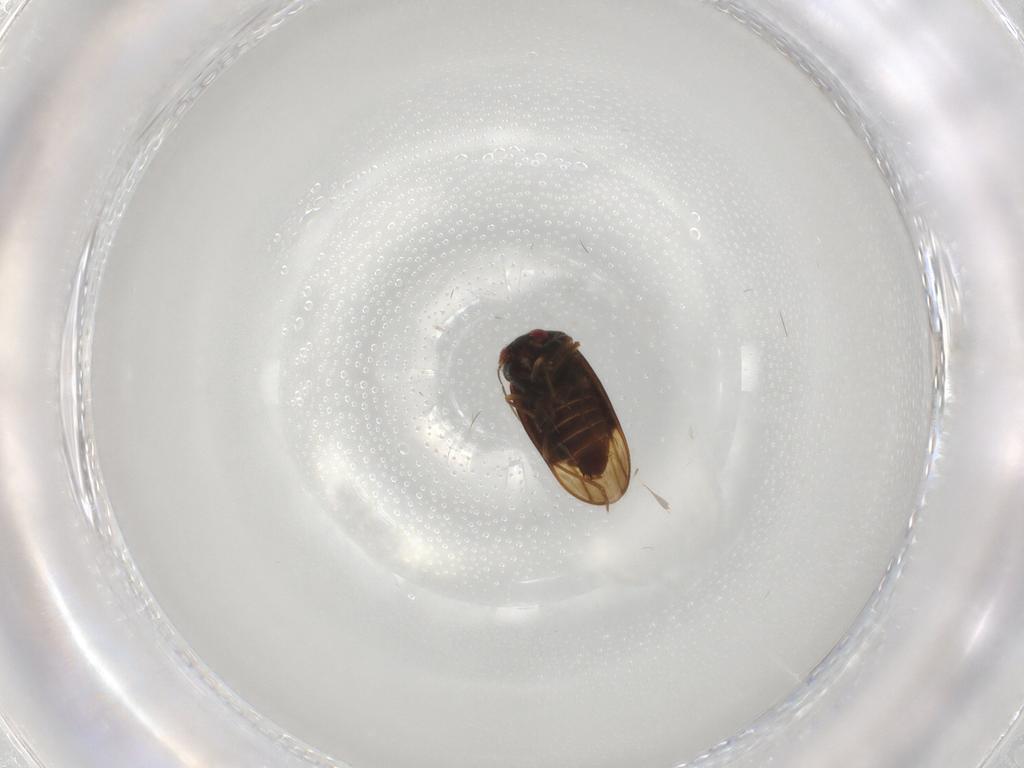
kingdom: Animalia
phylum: Arthropoda
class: Insecta
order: Hemiptera
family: Schizopteridae
